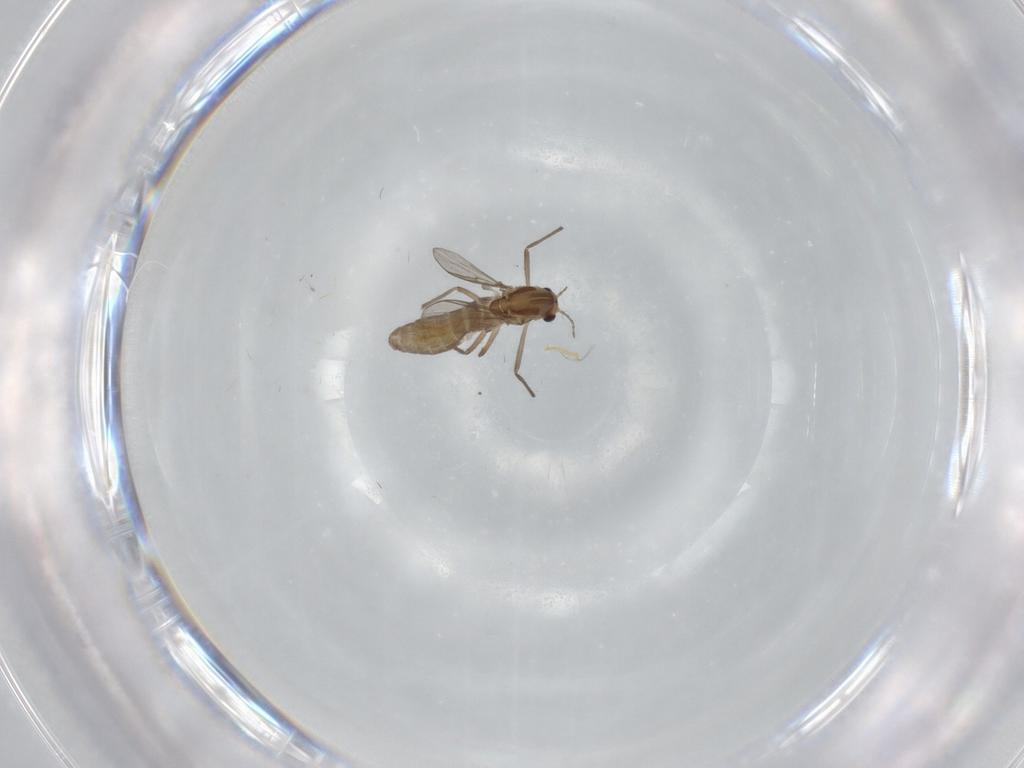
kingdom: Animalia
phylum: Arthropoda
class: Insecta
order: Diptera
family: Chironomidae
